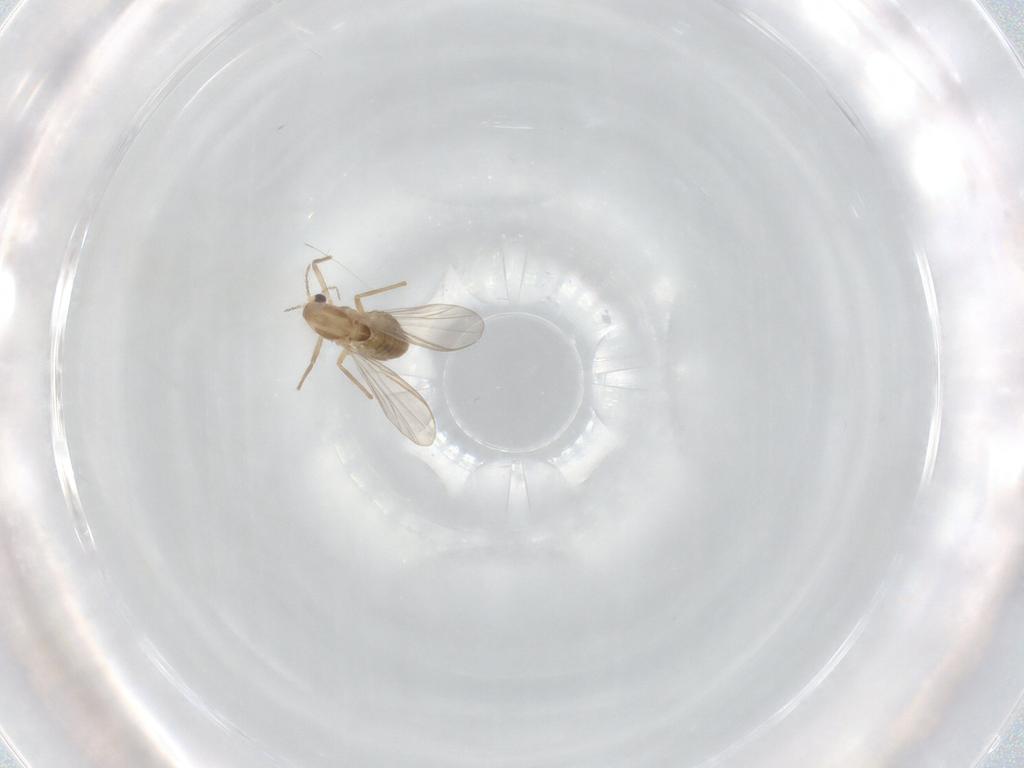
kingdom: Animalia
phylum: Arthropoda
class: Insecta
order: Diptera
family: Chironomidae
